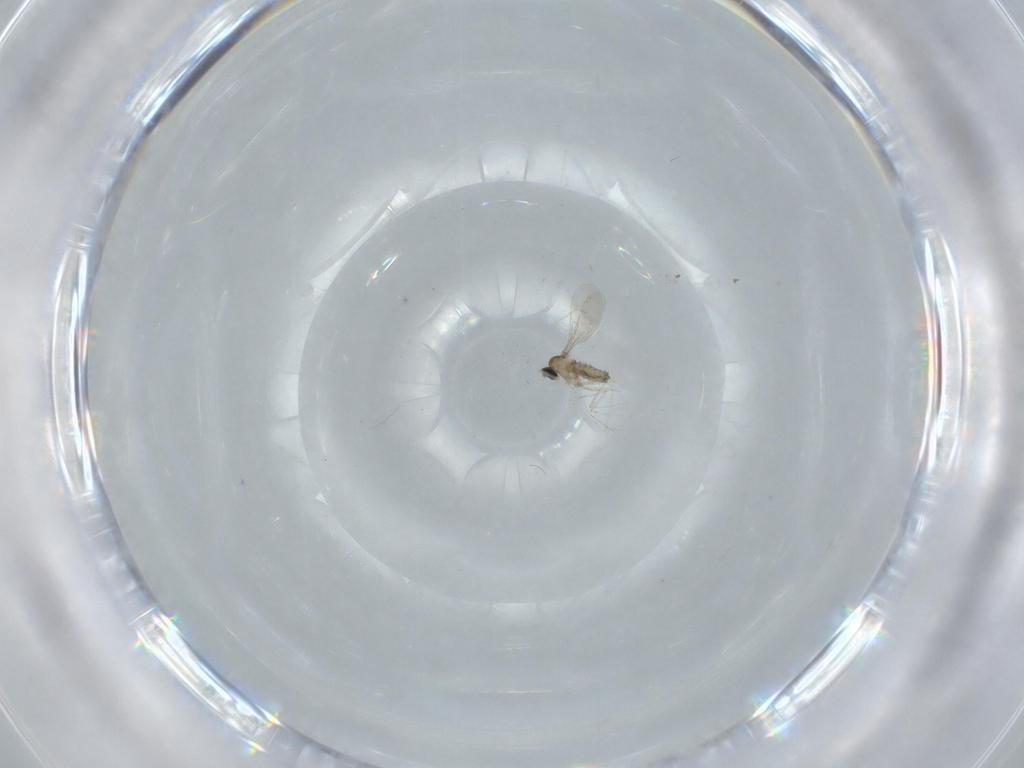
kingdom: Animalia
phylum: Arthropoda
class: Insecta
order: Diptera
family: Cecidomyiidae
